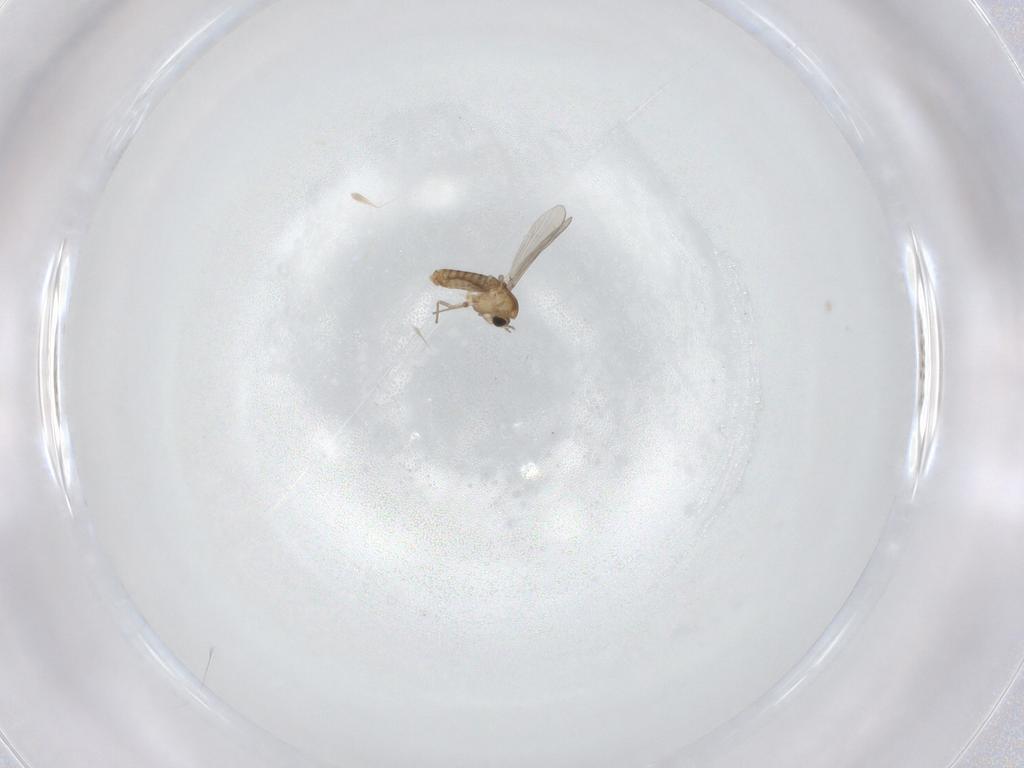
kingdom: Animalia
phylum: Arthropoda
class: Insecta
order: Diptera
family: Chironomidae
